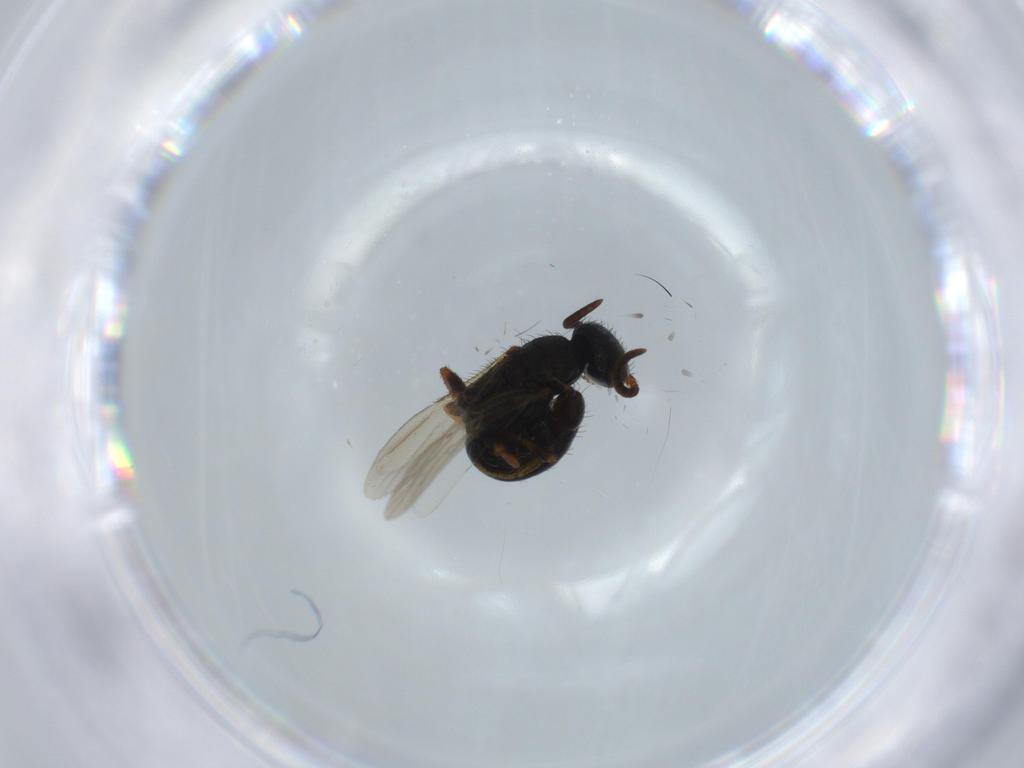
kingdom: Animalia
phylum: Arthropoda
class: Insecta
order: Hymenoptera
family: Bethylidae
